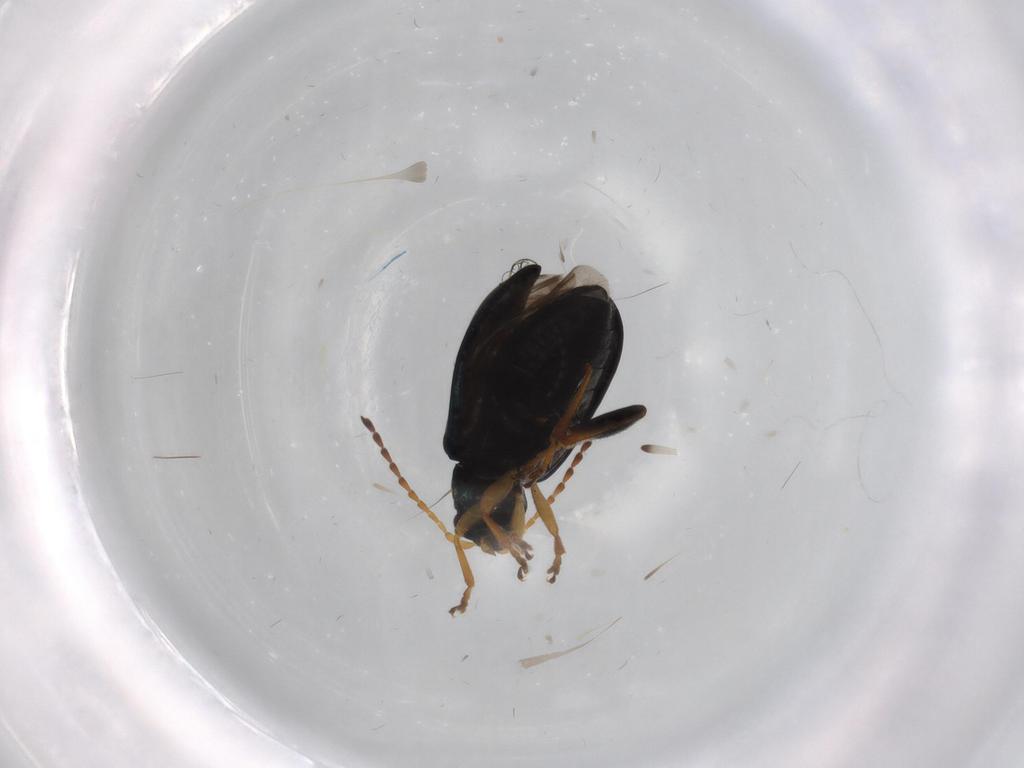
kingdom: Animalia
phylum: Arthropoda
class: Insecta
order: Coleoptera
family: Chrysomelidae
